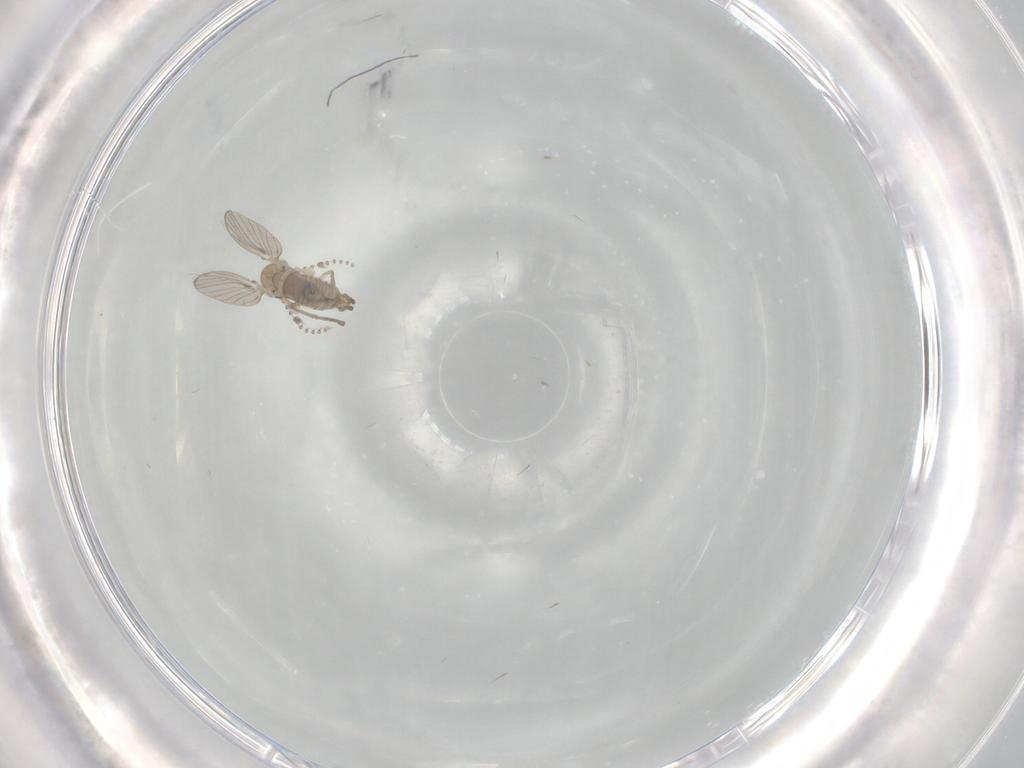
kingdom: Animalia
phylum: Arthropoda
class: Insecta
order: Diptera
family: Psychodidae
